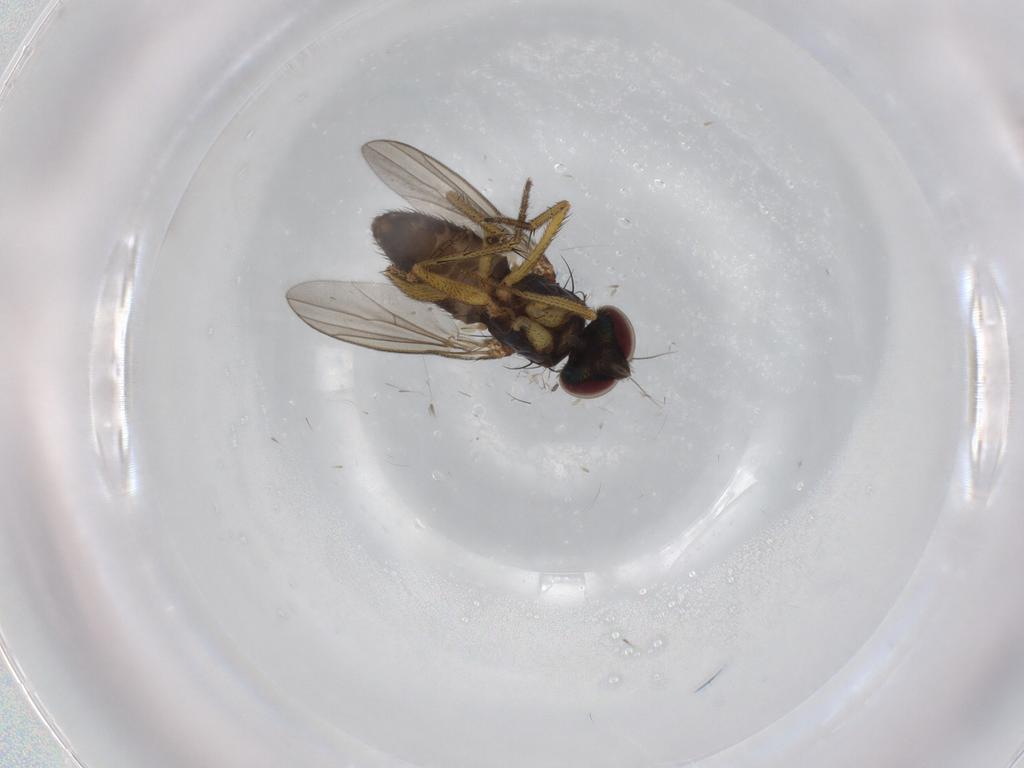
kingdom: Animalia
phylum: Arthropoda
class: Insecta
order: Diptera
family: Dolichopodidae
